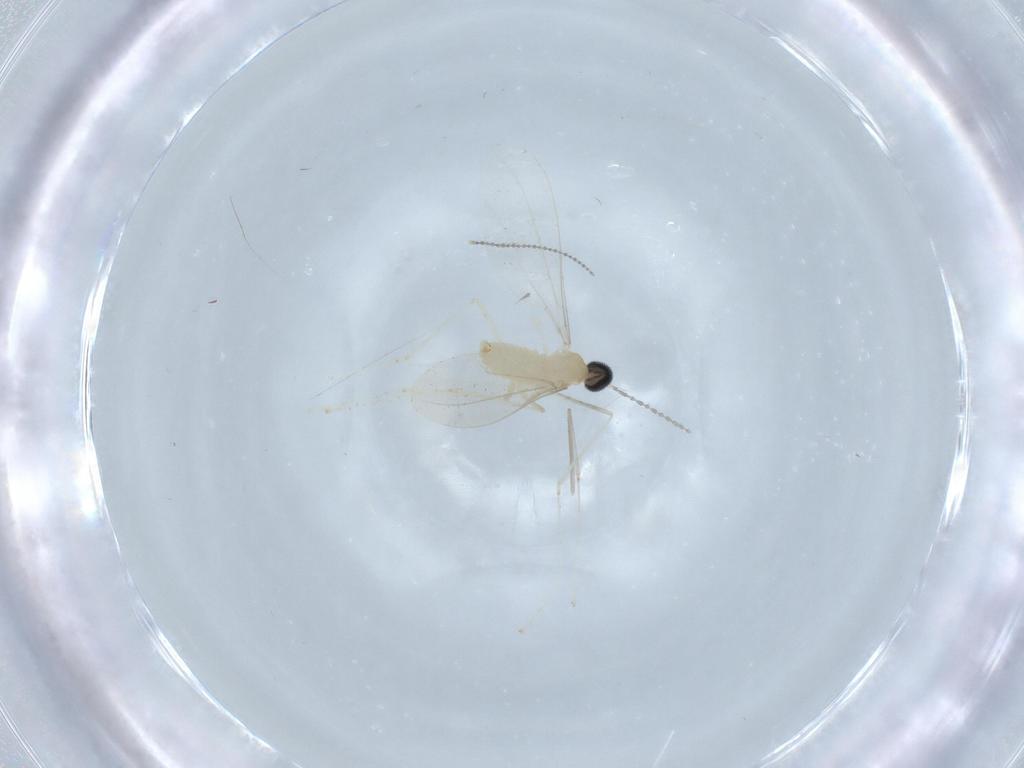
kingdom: Animalia
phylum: Arthropoda
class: Insecta
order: Diptera
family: Cecidomyiidae
